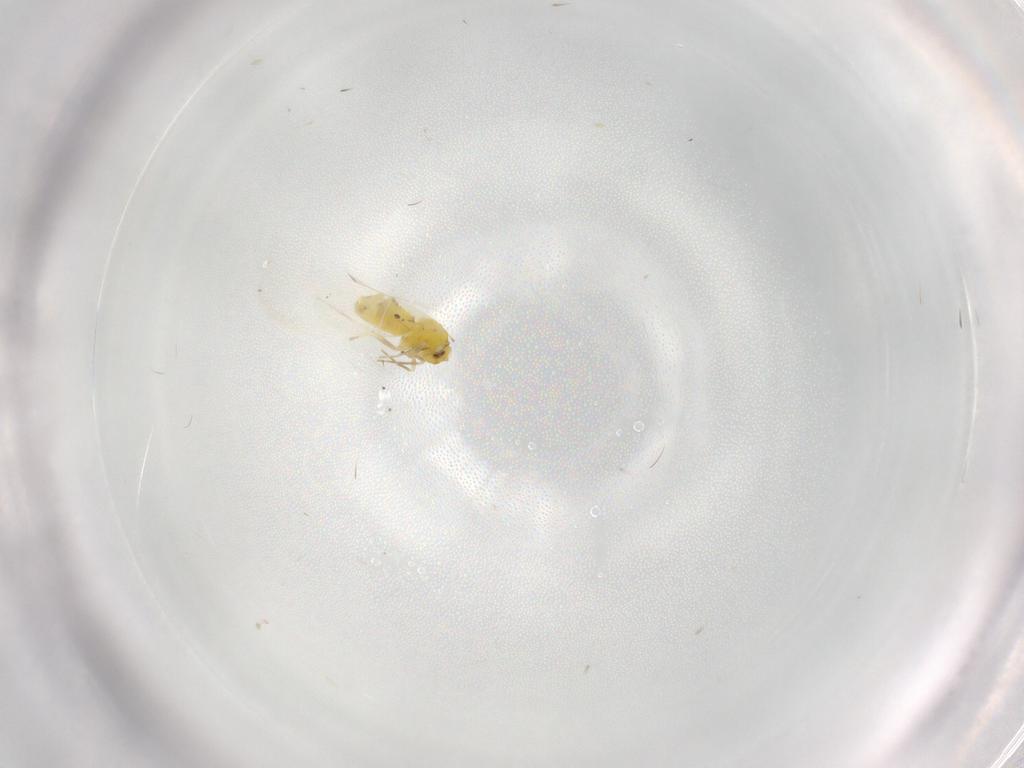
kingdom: Animalia
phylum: Arthropoda
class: Insecta
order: Hemiptera
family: Aleyrodidae
